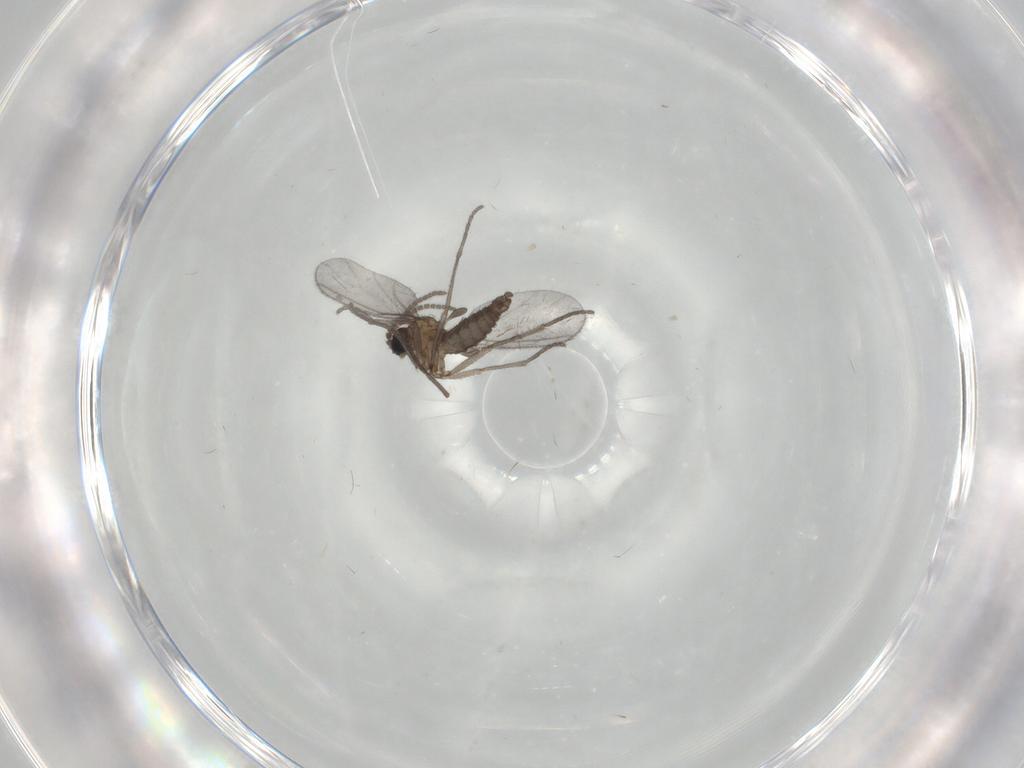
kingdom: Animalia
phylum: Arthropoda
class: Insecta
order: Diptera
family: Sciaridae
